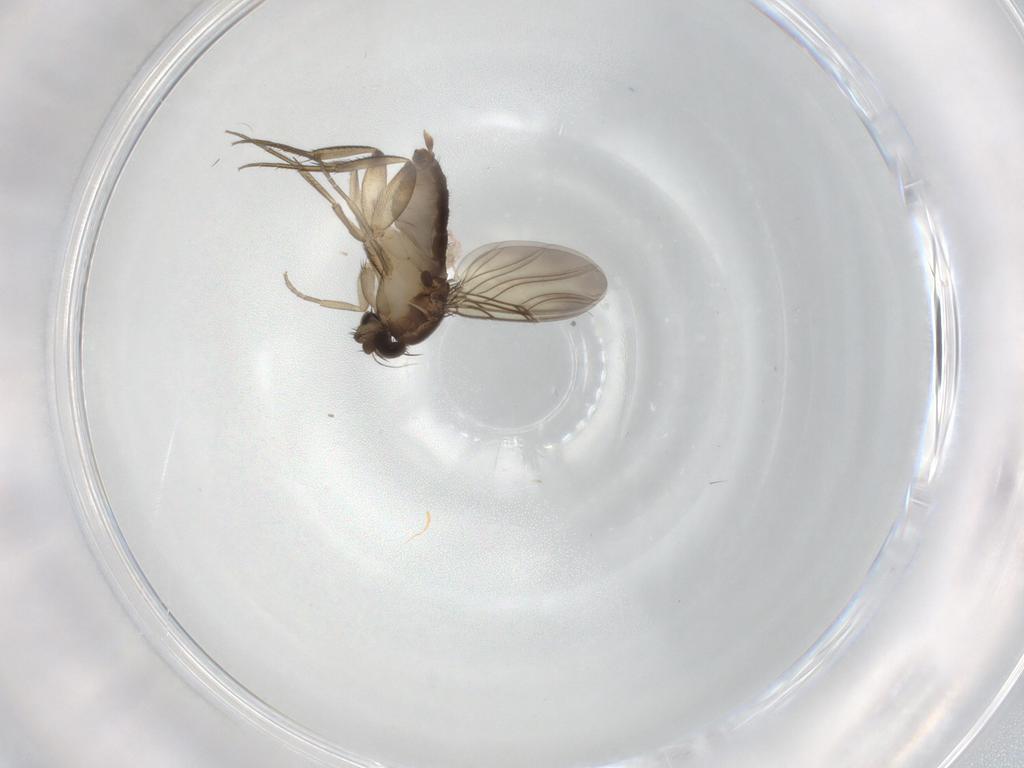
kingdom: Animalia
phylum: Arthropoda
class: Insecta
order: Diptera
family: Phoridae
